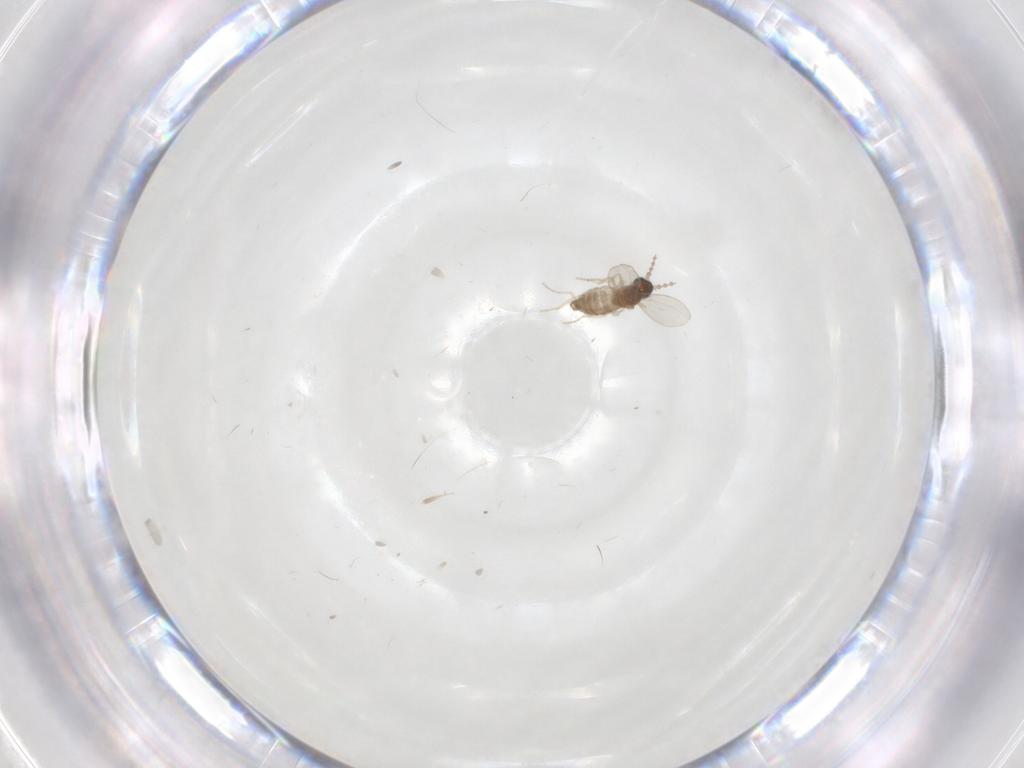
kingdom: Animalia
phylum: Arthropoda
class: Insecta
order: Diptera
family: Cecidomyiidae
